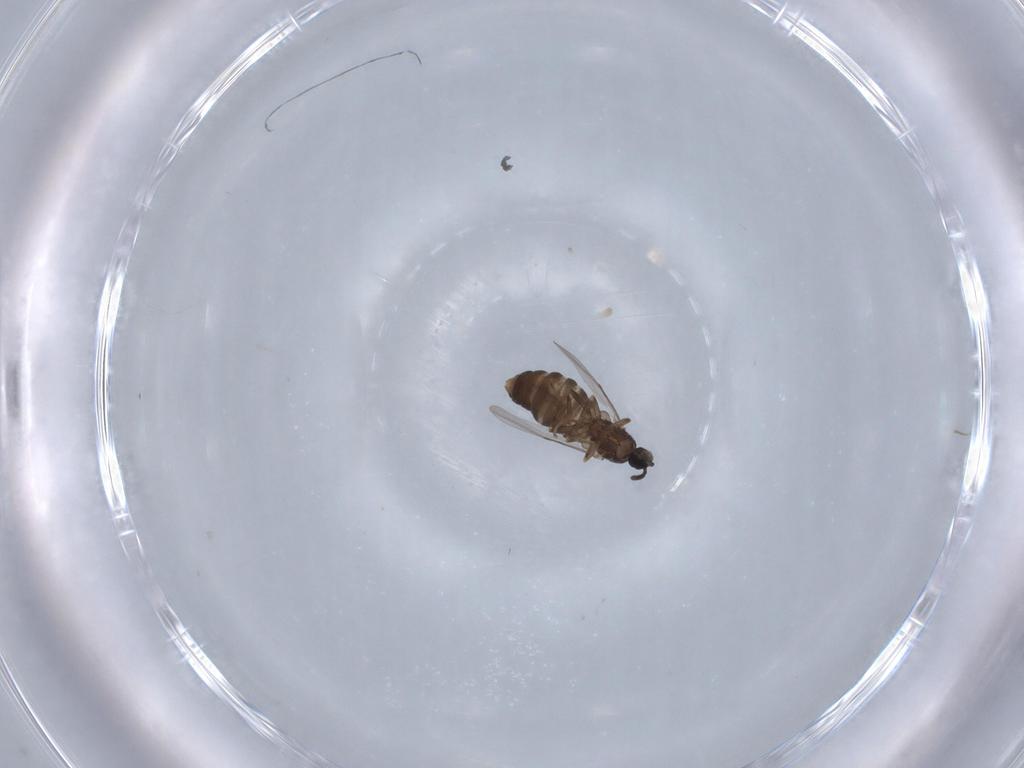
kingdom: Animalia
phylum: Arthropoda
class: Insecta
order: Diptera
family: Scatopsidae
